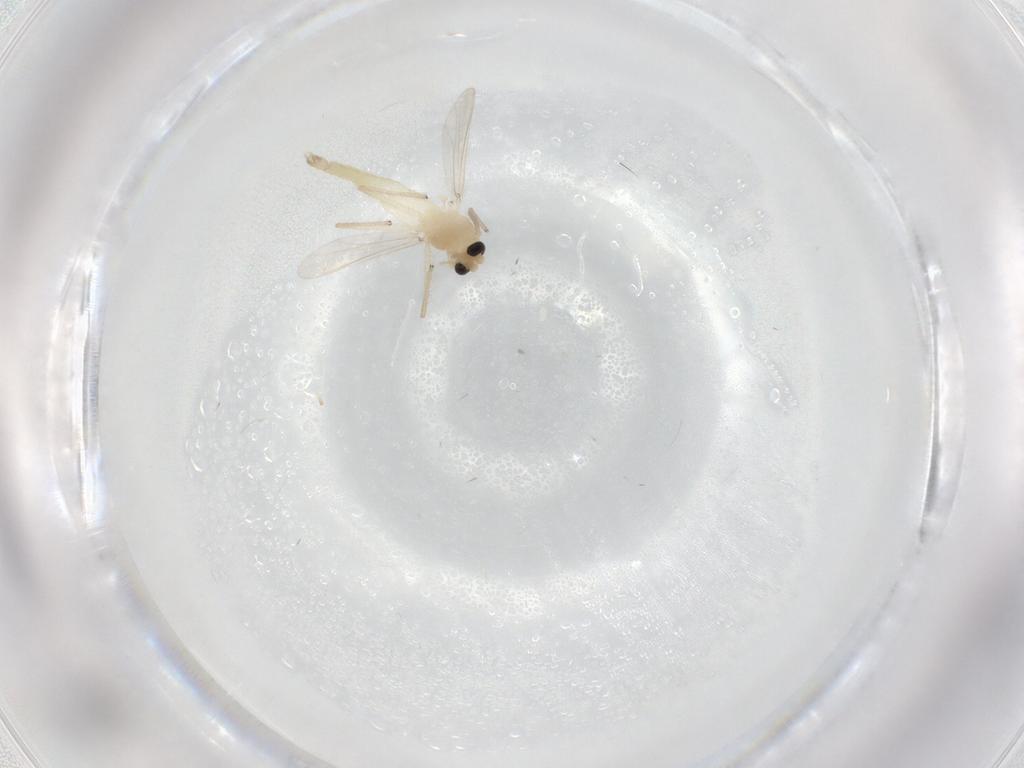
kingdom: Animalia
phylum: Arthropoda
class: Insecta
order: Diptera
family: Chironomidae
